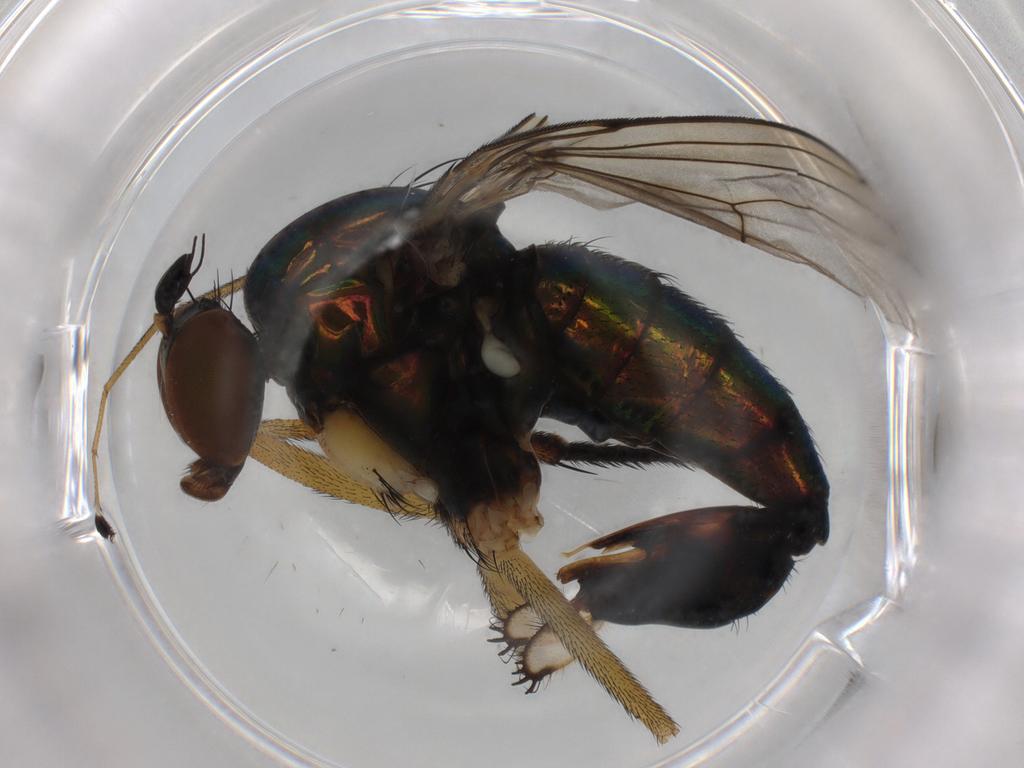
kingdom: Animalia
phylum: Arthropoda
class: Insecta
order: Diptera
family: Dolichopodidae
